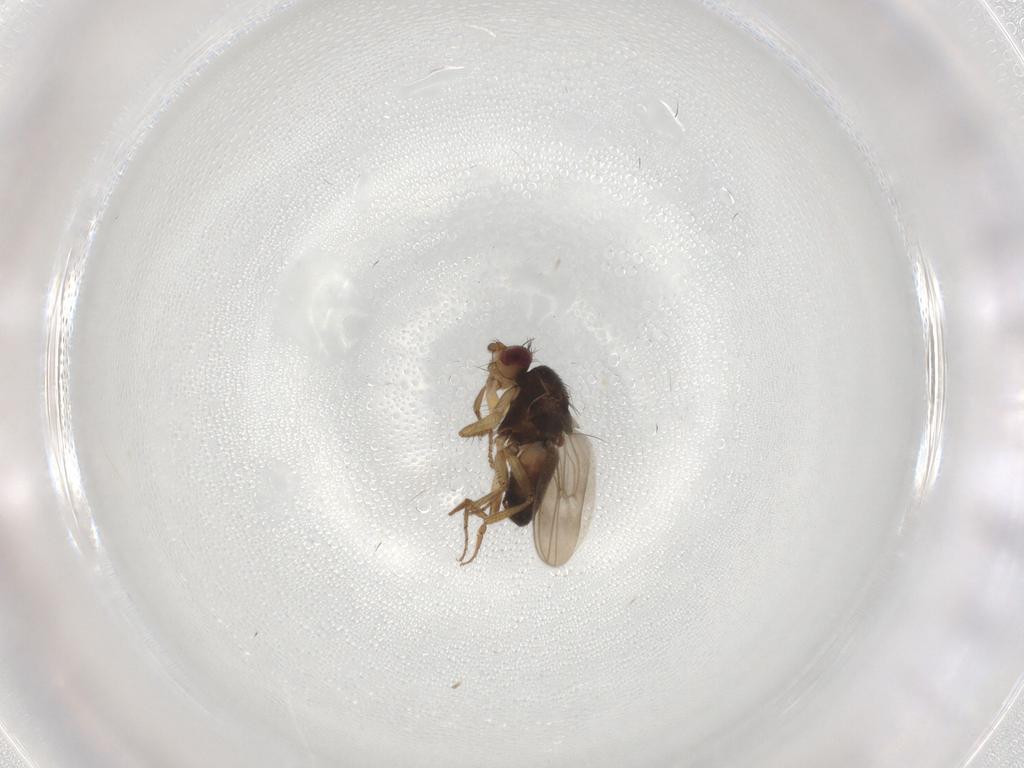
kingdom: Animalia
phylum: Arthropoda
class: Insecta
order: Diptera
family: Sphaeroceridae
